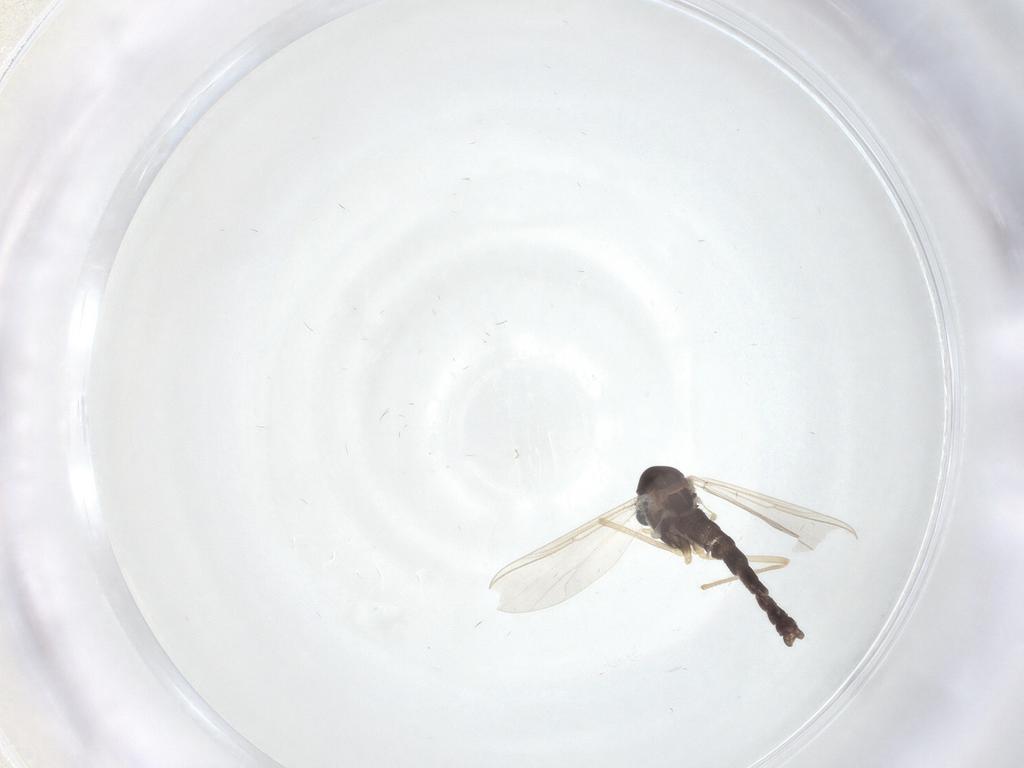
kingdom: Animalia
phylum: Arthropoda
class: Insecta
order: Diptera
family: Chironomidae
